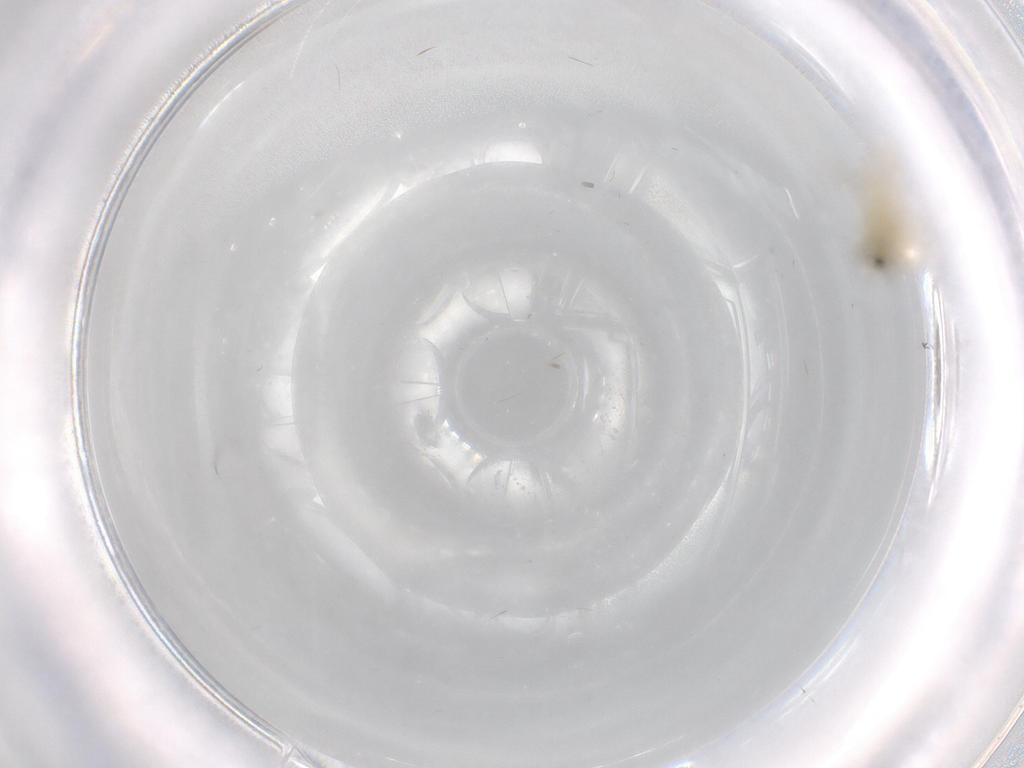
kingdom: Animalia
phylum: Arthropoda
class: Insecta
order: Diptera
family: Chironomidae
